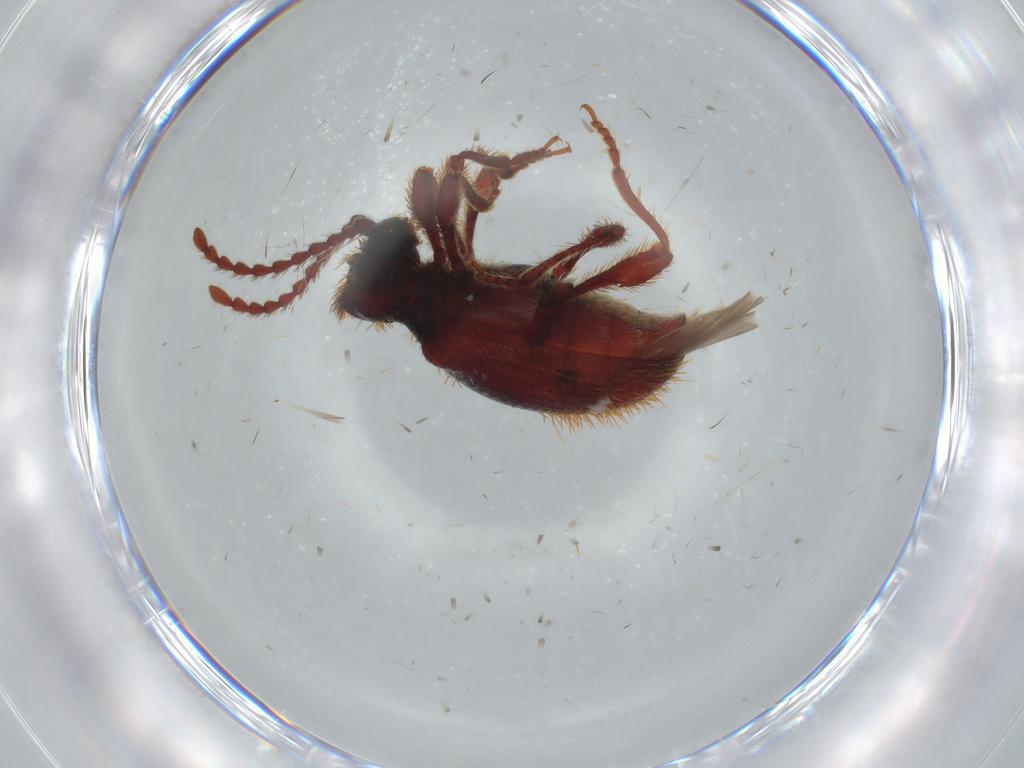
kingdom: Animalia
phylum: Arthropoda
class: Insecta
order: Coleoptera
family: Ptinidae
